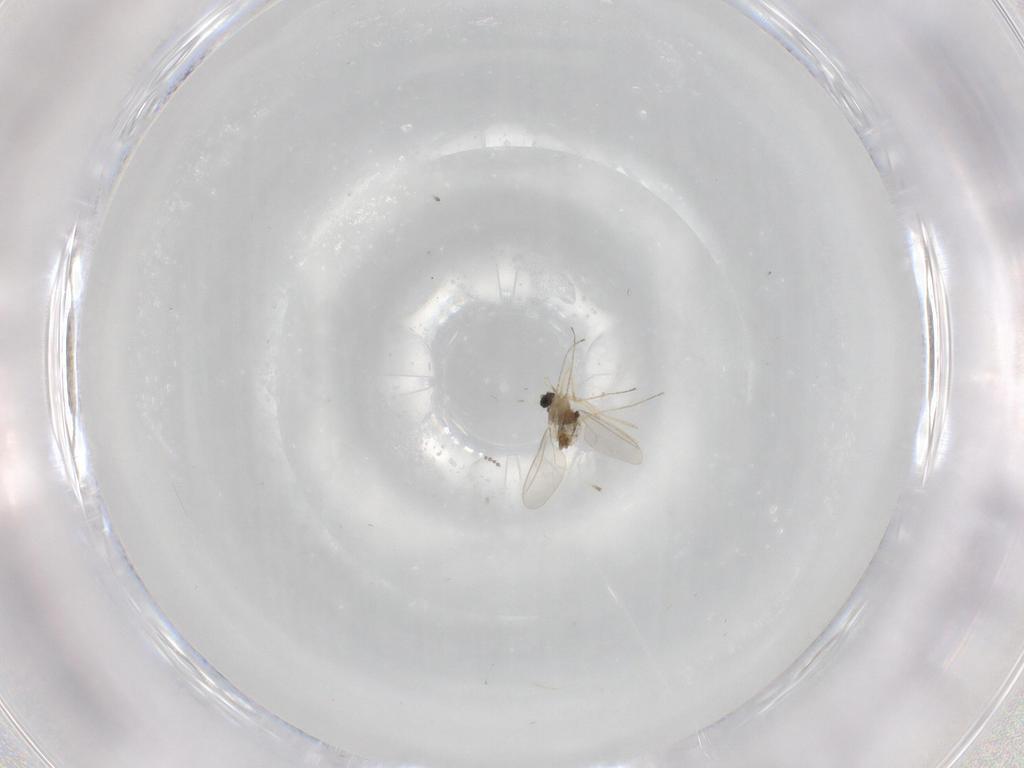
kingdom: Animalia
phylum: Arthropoda
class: Insecta
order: Diptera
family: Cecidomyiidae
